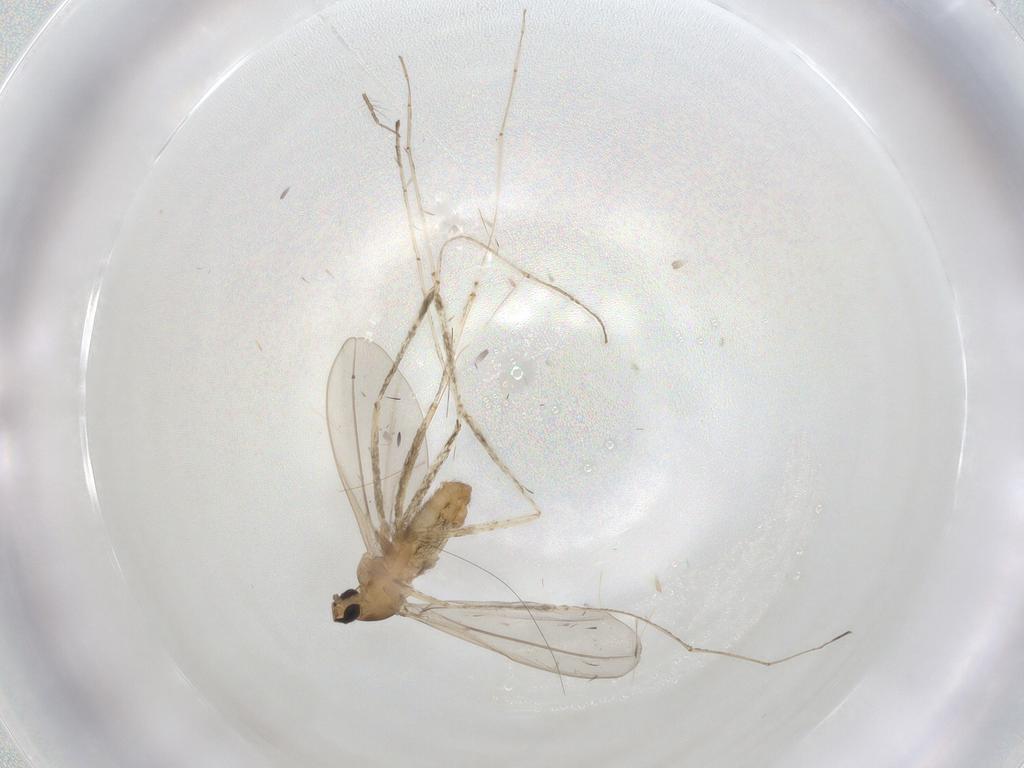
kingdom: Animalia
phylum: Arthropoda
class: Insecta
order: Diptera
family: Cecidomyiidae
